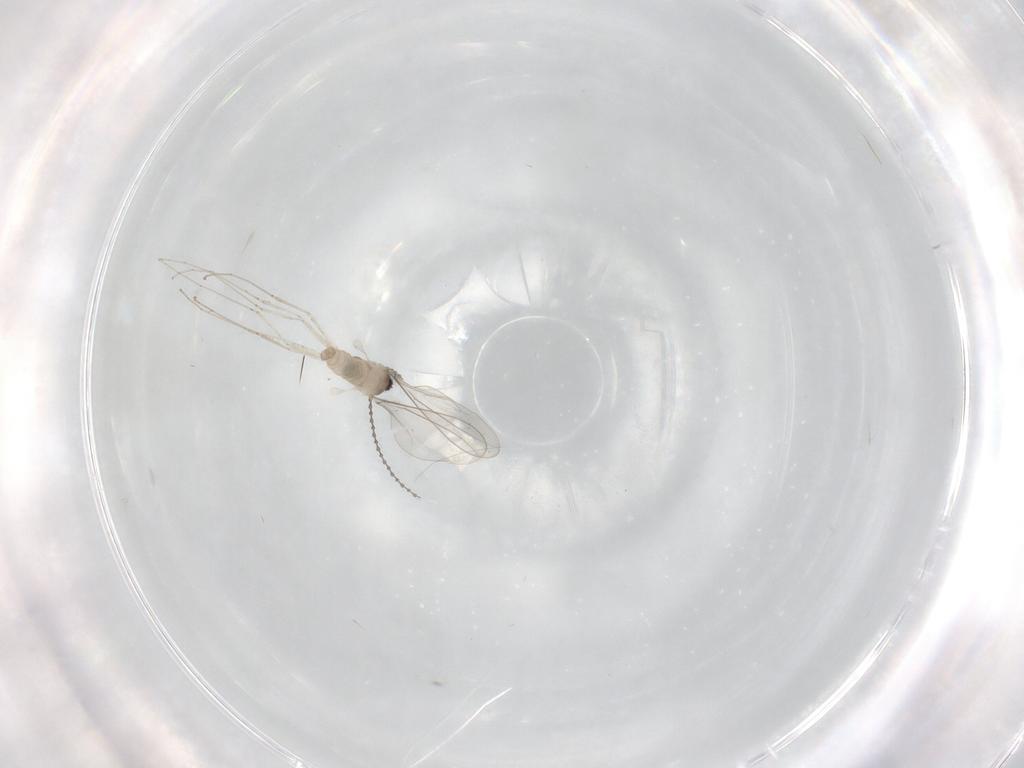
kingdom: Animalia
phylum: Arthropoda
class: Insecta
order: Diptera
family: Cecidomyiidae
